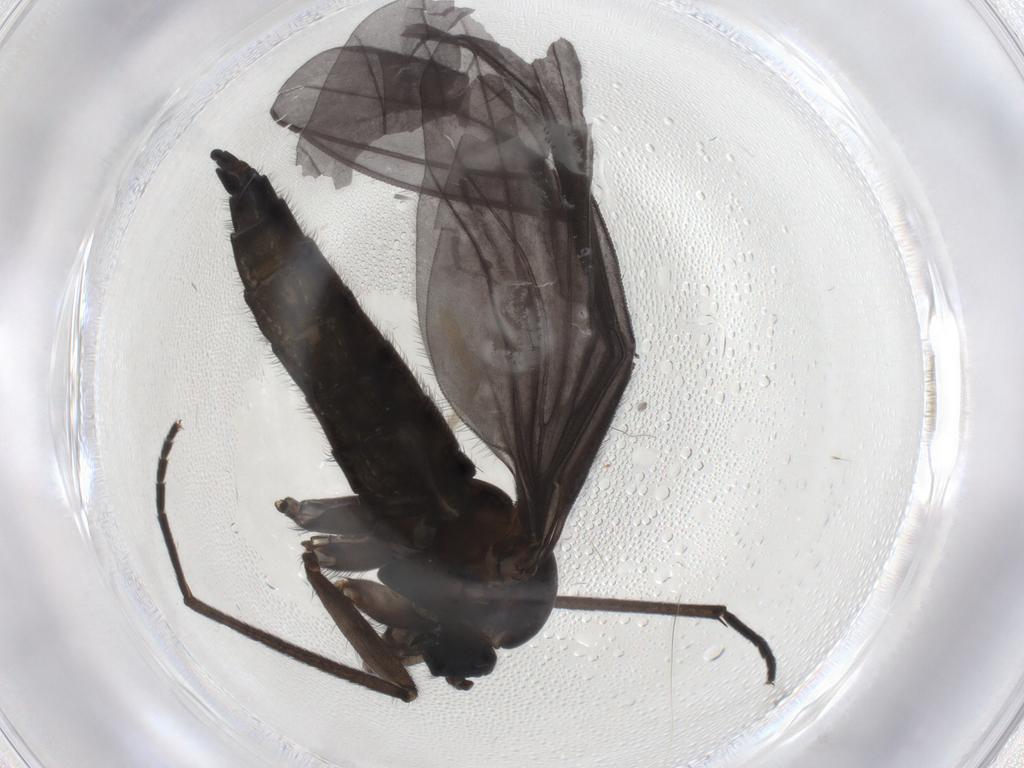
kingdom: Animalia
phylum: Arthropoda
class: Insecta
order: Diptera
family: Sciaridae
